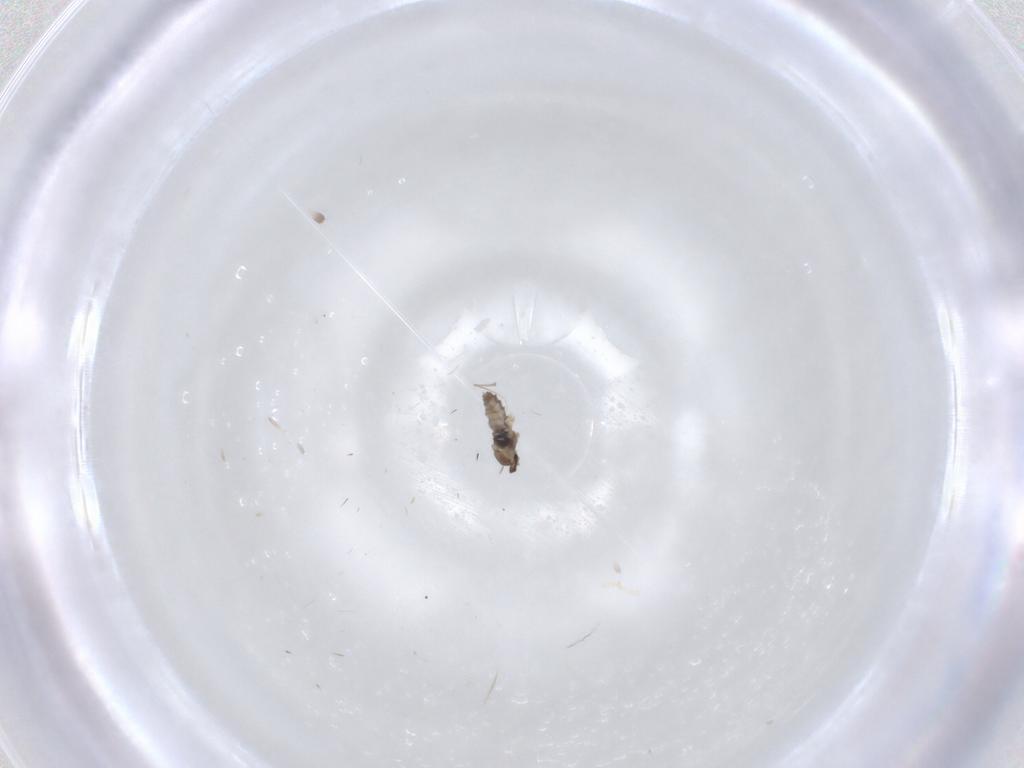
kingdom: Animalia
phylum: Arthropoda
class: Insecta
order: Diptera
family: Cecidomyiidae
